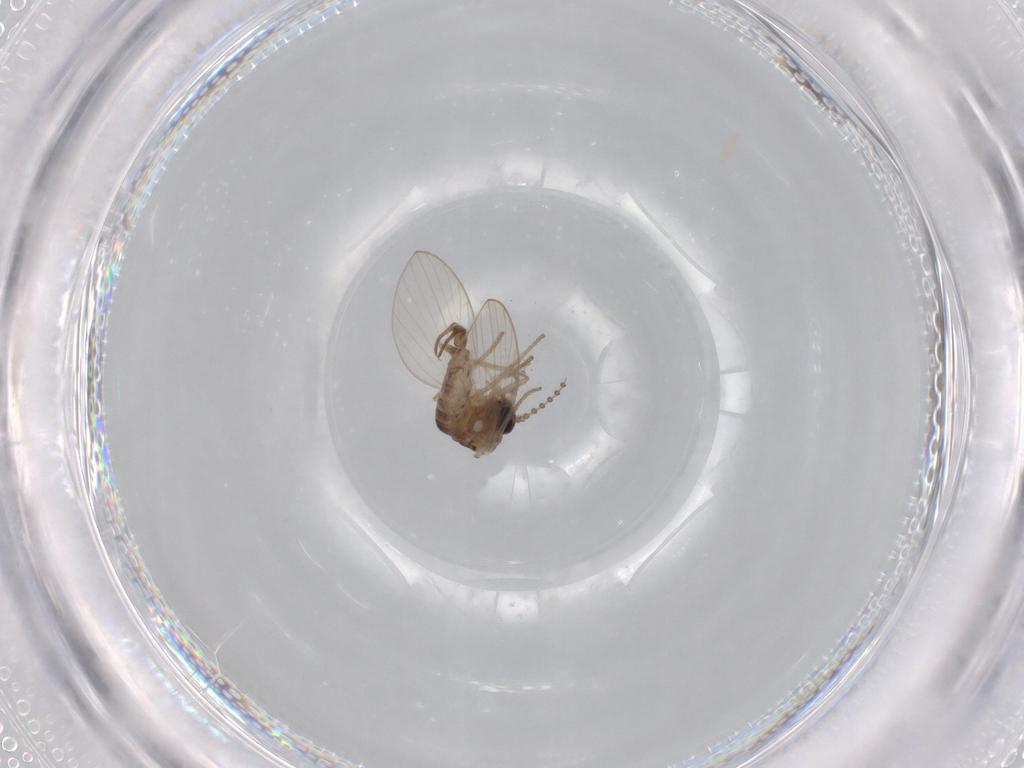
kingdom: Animalia
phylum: Arthropoda
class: Insecta
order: Diptera
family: Psychodidae
